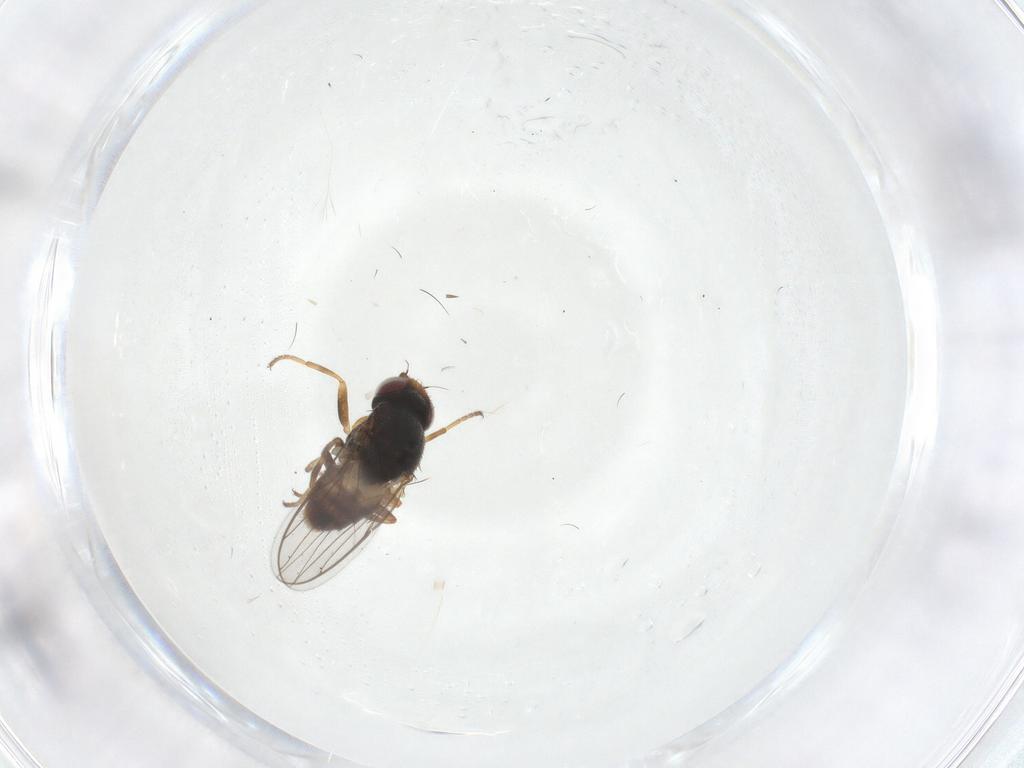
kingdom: Animalia
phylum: Arthropoda
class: Insecta
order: Diptera
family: Chloropidae
